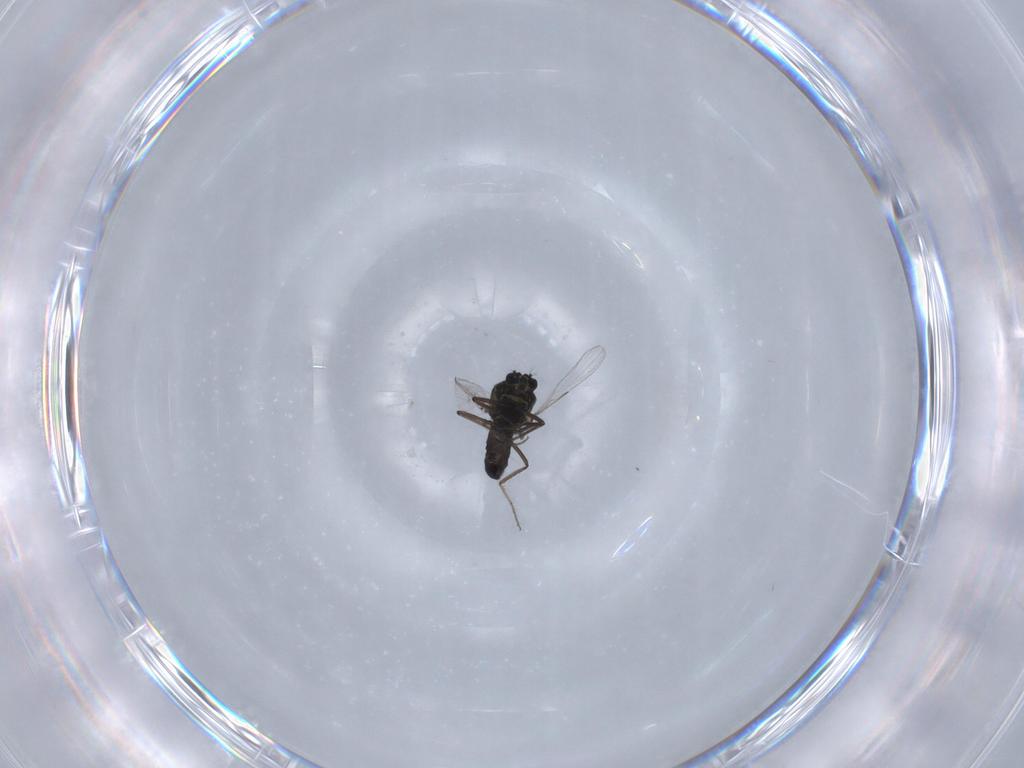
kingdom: Animalia
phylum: Arthropoda
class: Insecta
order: Diptera
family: Ceratopogonidae
